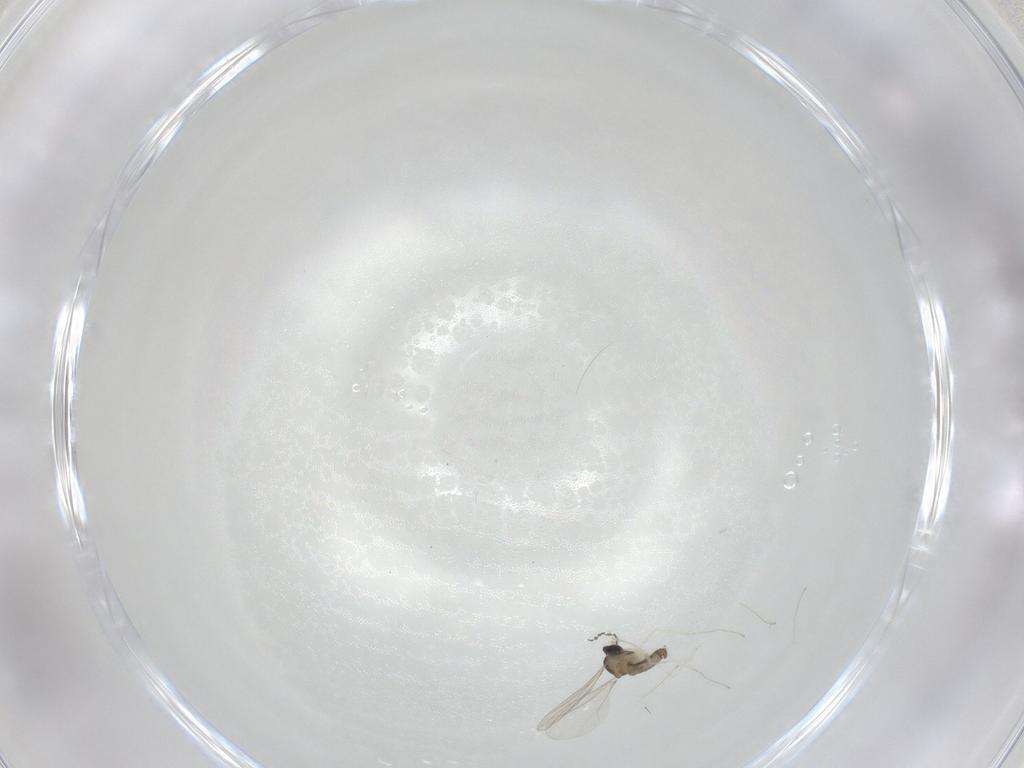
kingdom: Animalia
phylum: Arthropoda
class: Insecta
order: Diptera
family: Cecidomyiidae
